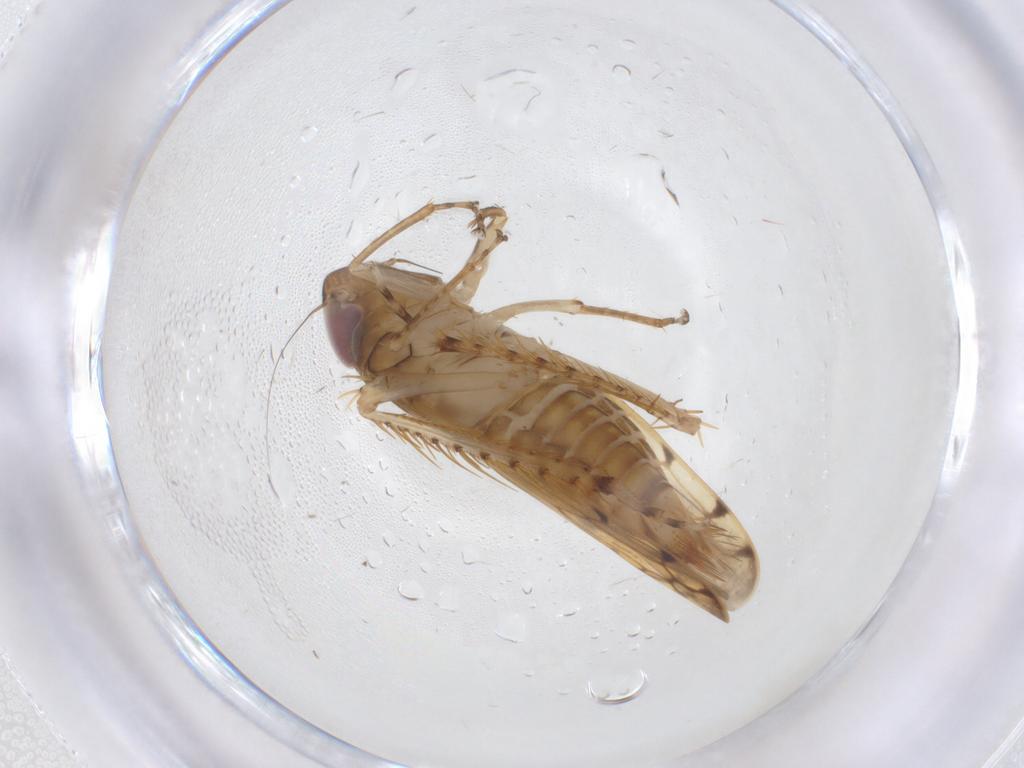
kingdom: Animalia
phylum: Arthropoda
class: Insecta
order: Hemiptera
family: Cicadellidae
